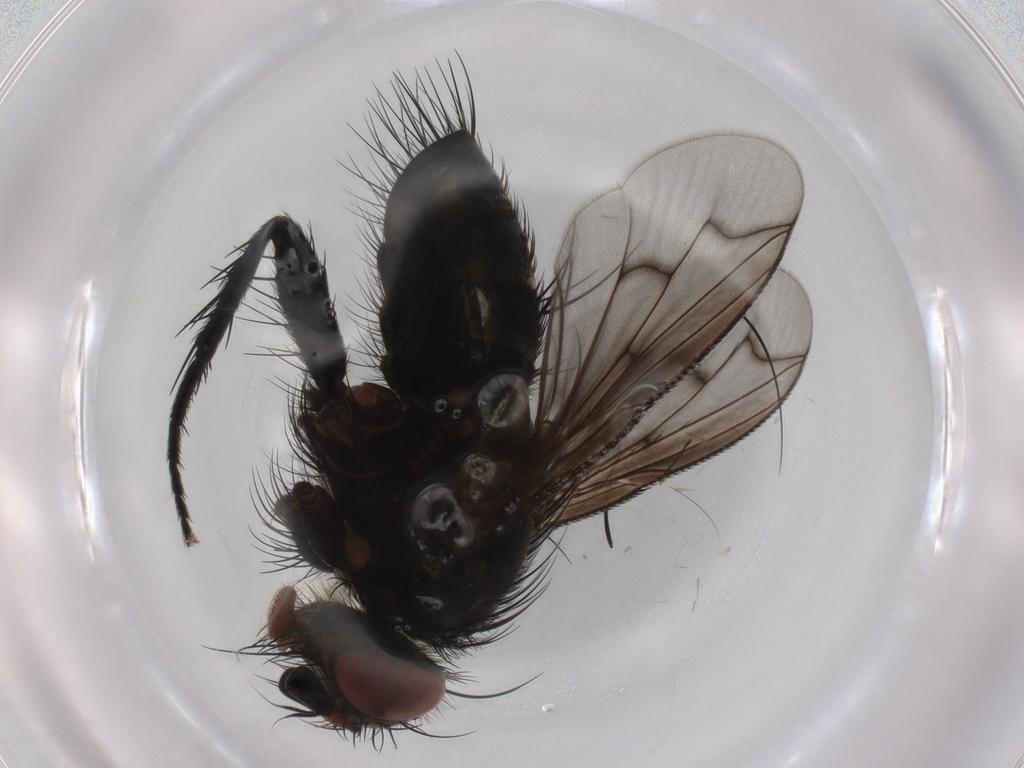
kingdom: Animalia
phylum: Arthropoda
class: Insecta
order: Diptera
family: Tachinidae
